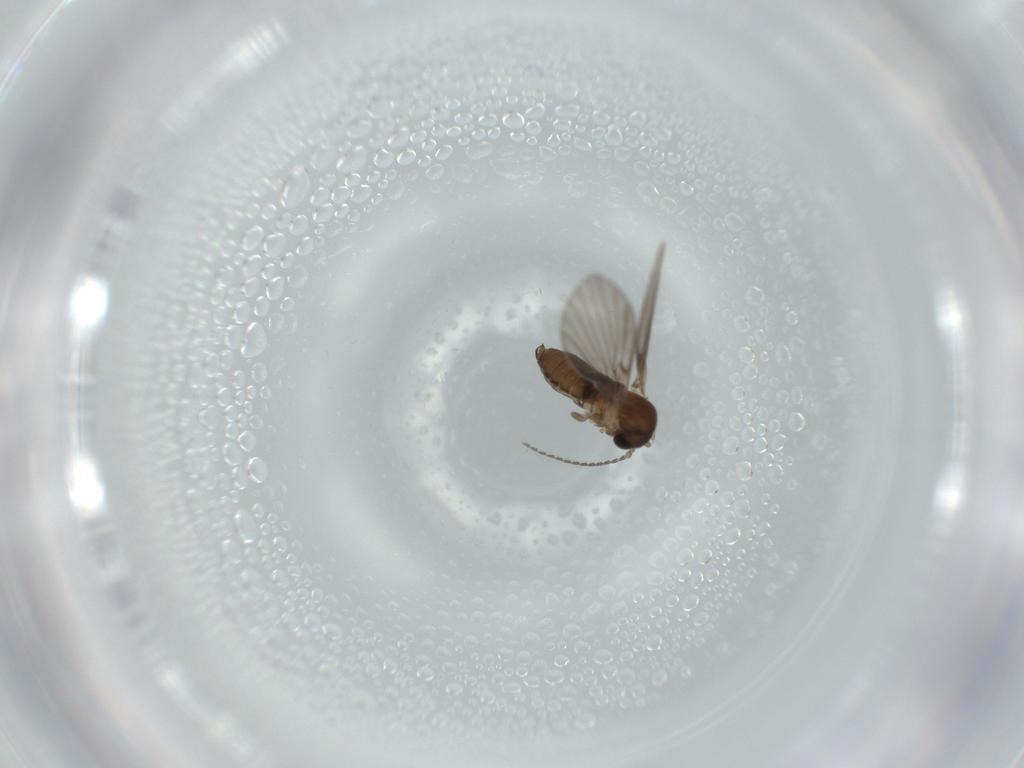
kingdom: Animalia
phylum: Arthropoda
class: Insecta
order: Diptera
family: Psychodidae
